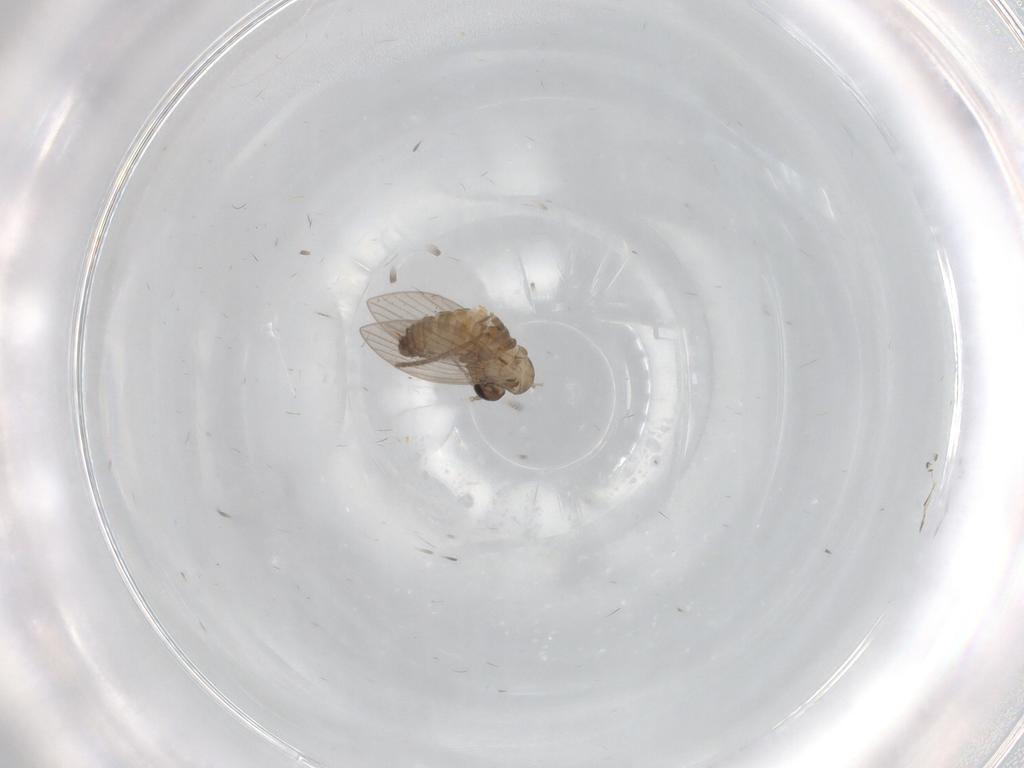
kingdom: Animalia
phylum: Arthropoda
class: Insecta
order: Diptera
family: Psychodidae
